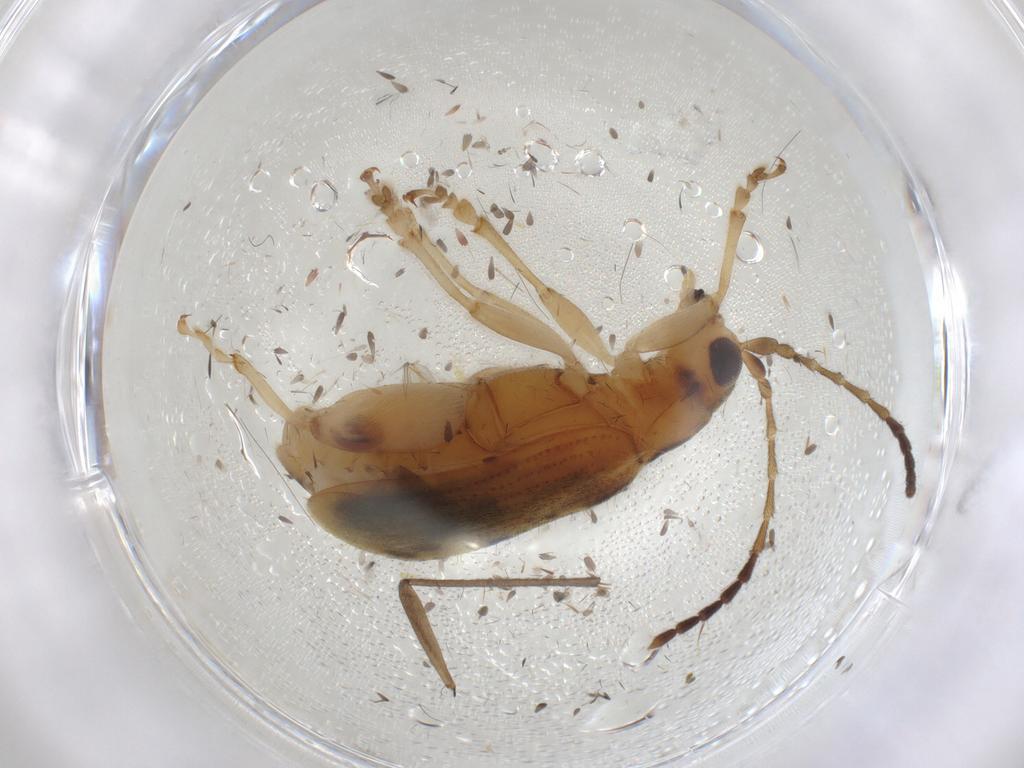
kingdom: Animalia
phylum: Arthropoda
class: Insecta
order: Coleoptera
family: Chrysomelidae
